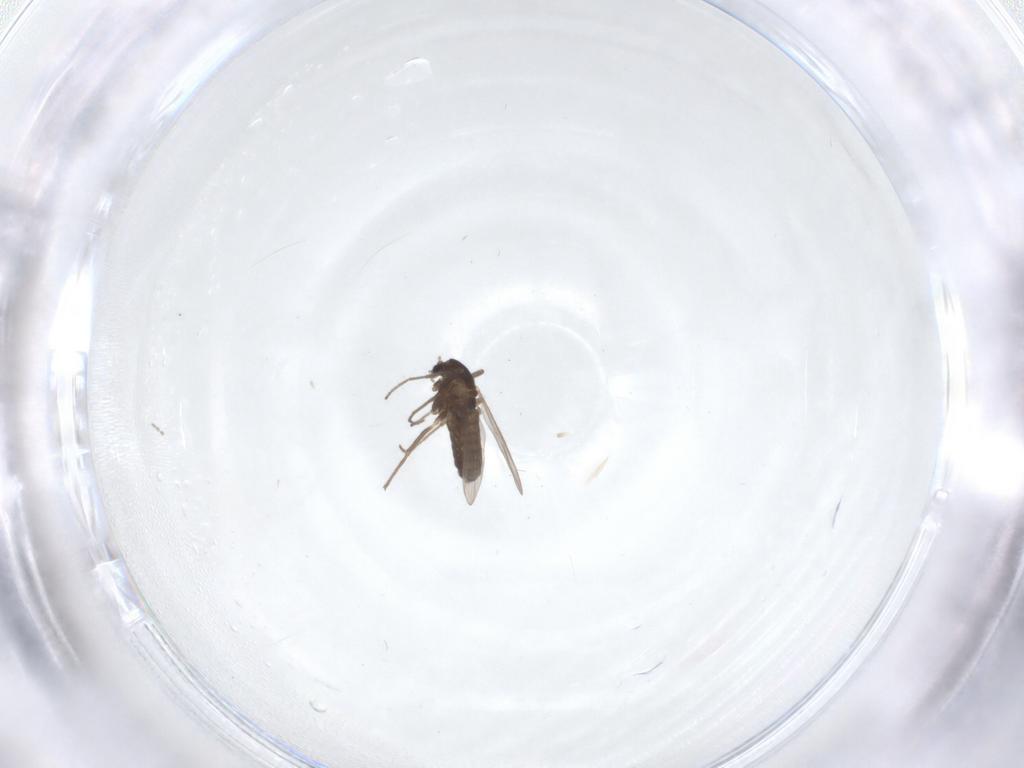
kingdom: Animalia
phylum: Arthropoda
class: Insecta
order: Diptera
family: Chironomidae
